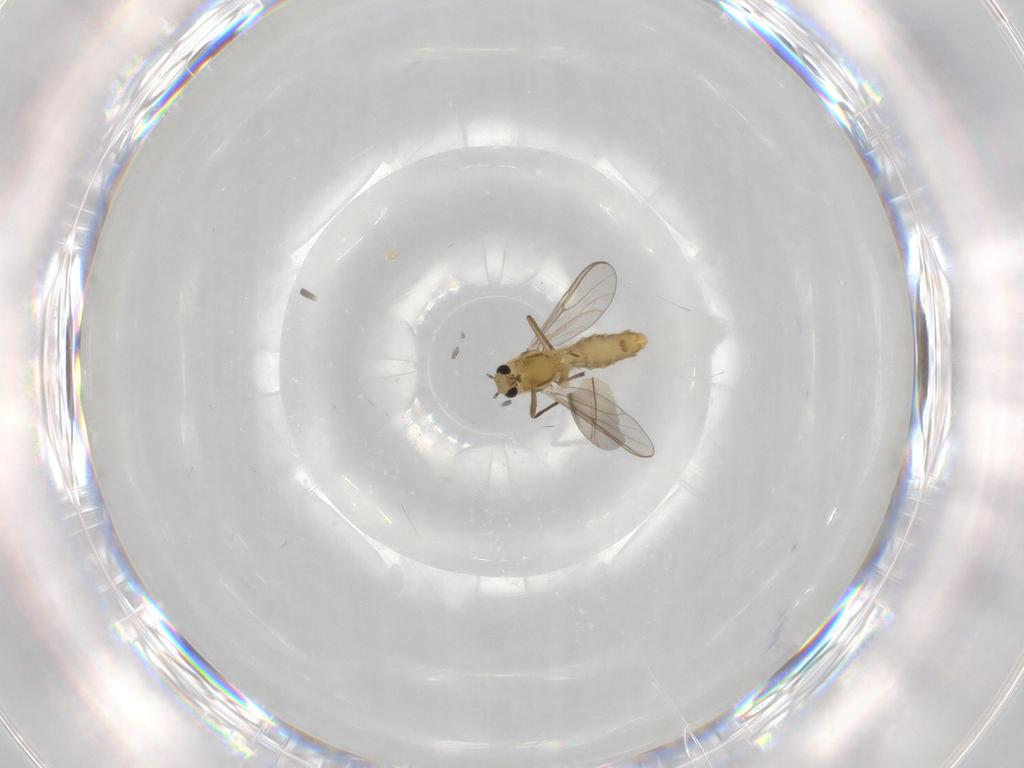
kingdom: Animalia
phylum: Arthropoda
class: Insecta
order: Diptera
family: Chironomidae
